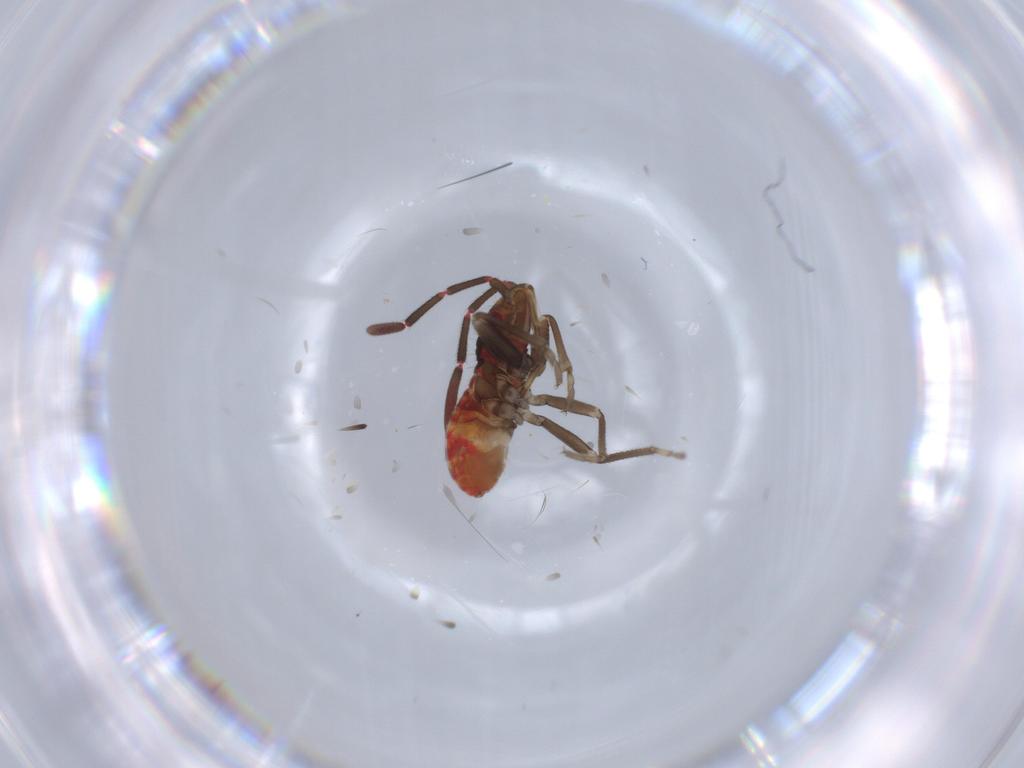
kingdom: Animalia
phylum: Arthropoda
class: Insecta
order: Hemiptera
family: Rhyparochromidae
